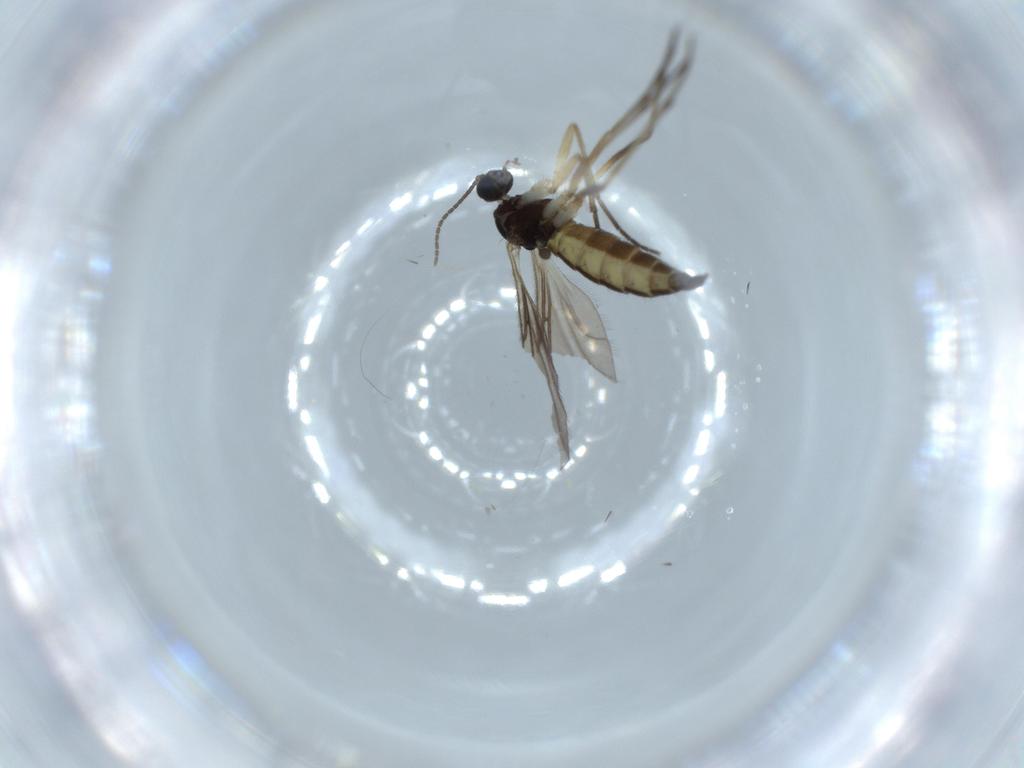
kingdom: Animalia
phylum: Arthropoda
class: Insecta
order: Diptera
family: Sciaridae
